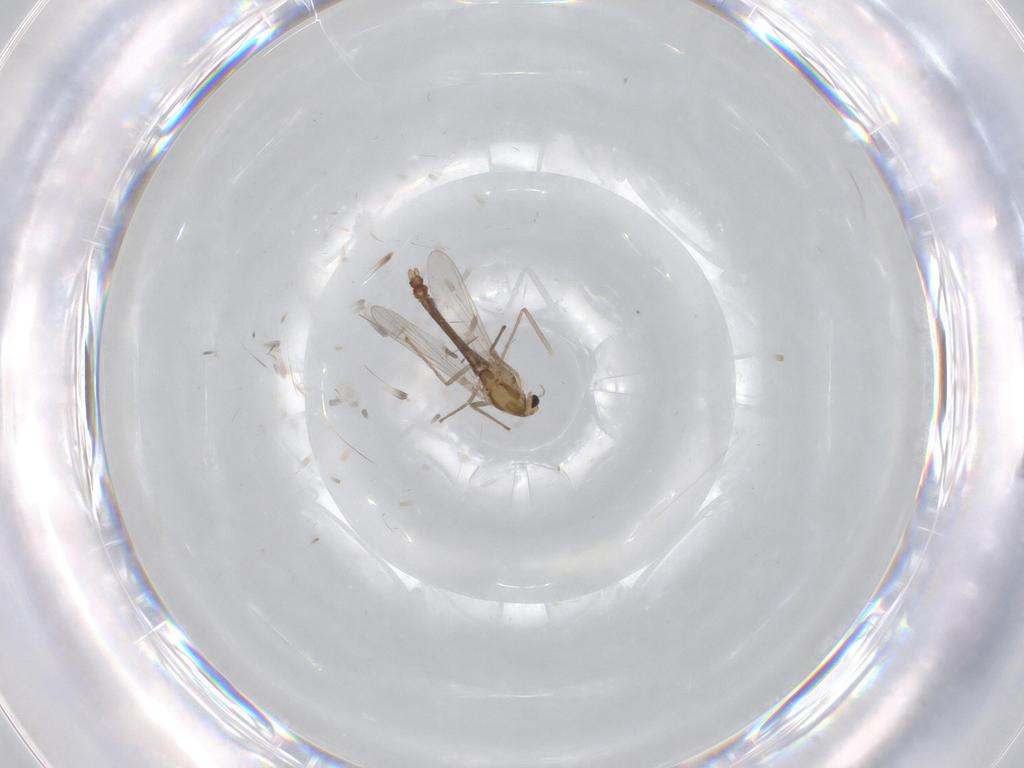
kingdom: Animalia
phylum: Arthropoda
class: Insecta
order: Diptera
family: Chironomidae
